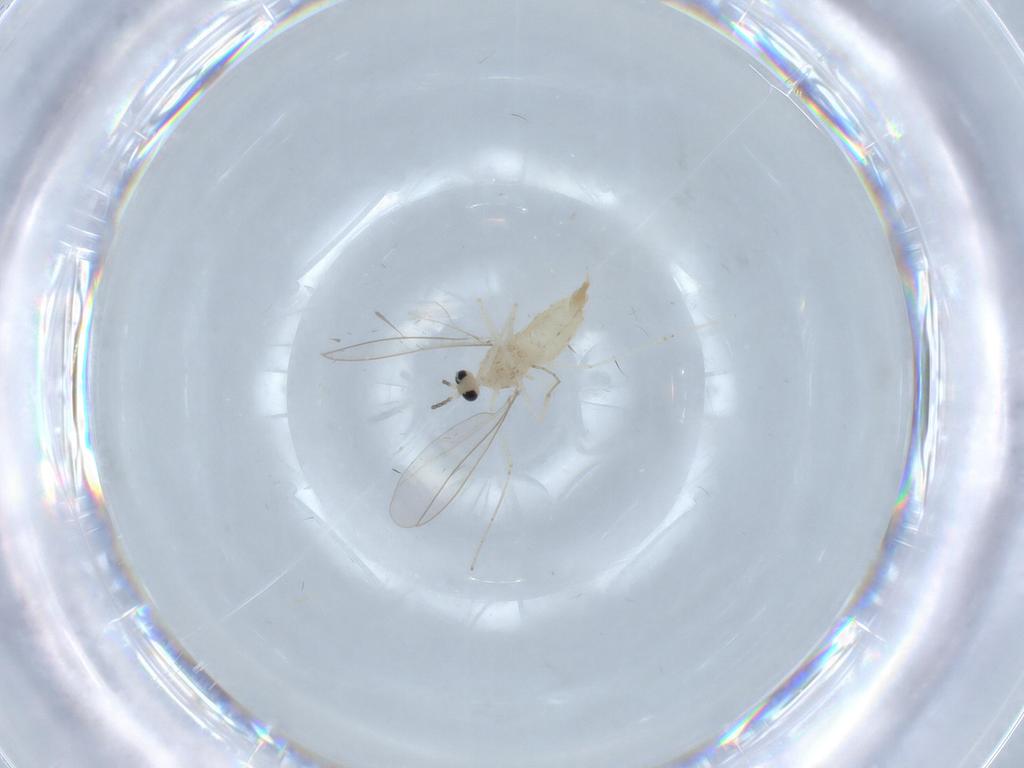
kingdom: Animalia
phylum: Arthropoda
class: Insecta
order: Diptera
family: Cecidomyiidae
